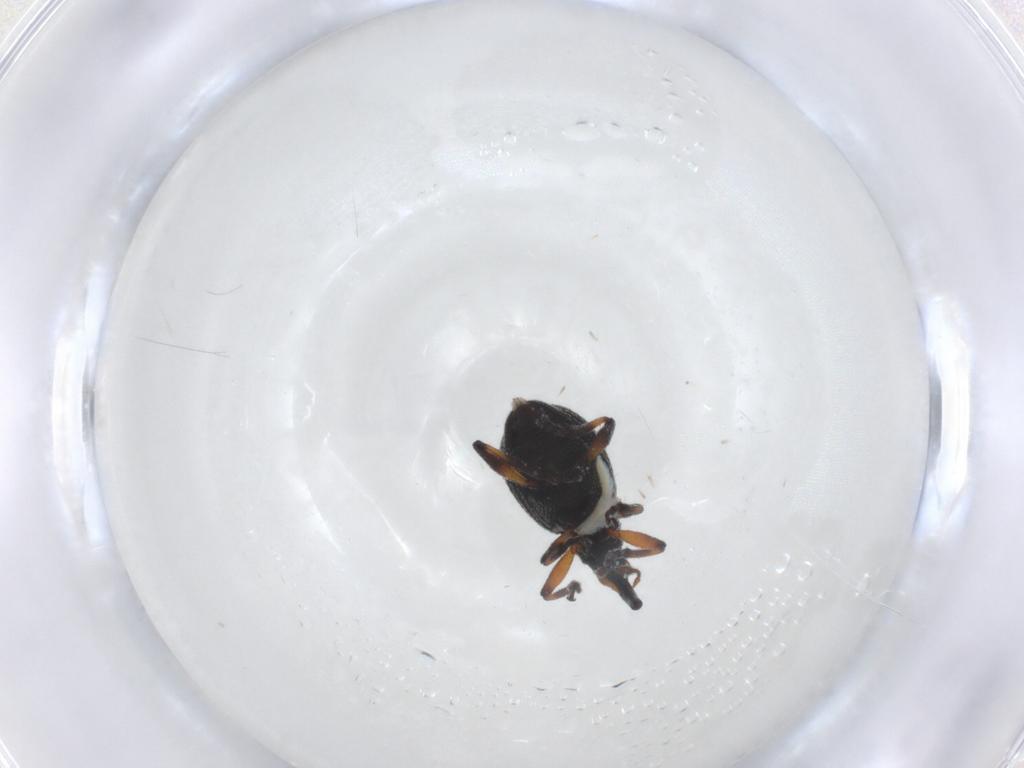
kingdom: Animalia
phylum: Arthropoda
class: Insecta
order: Coleoptera
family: Brentidae
